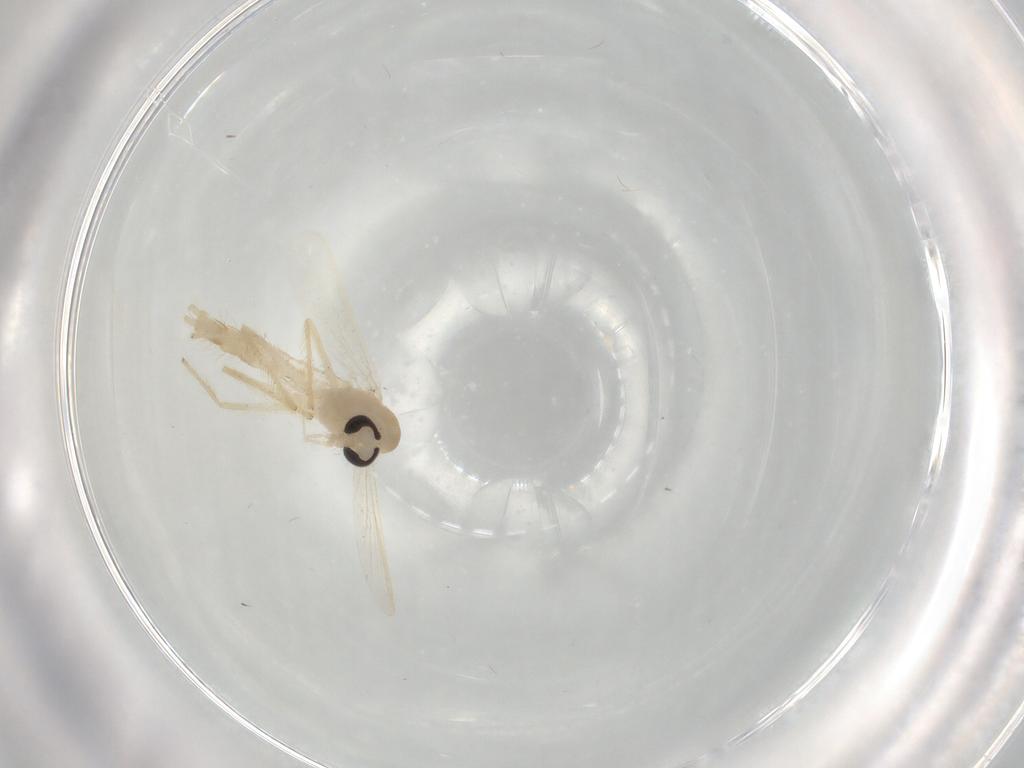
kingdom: Animalia
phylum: Arthropoda
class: Insecta
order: Diptera
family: Chironomidae
